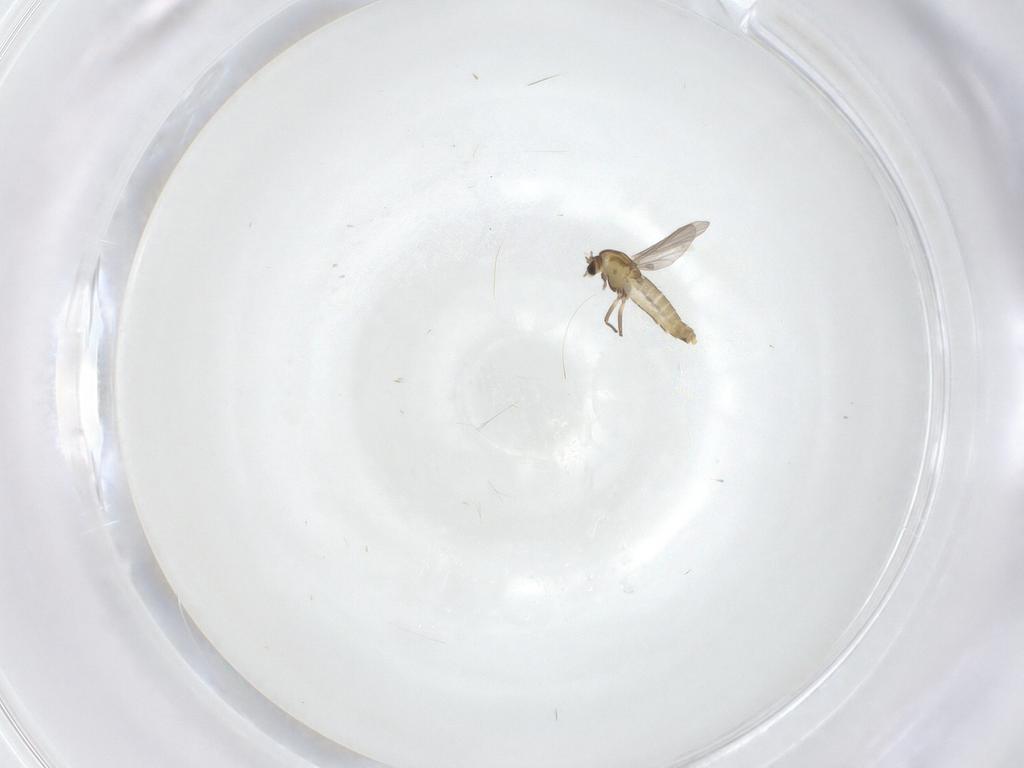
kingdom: Animalia
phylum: Arthropoda
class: Insecta
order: Diptera
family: Chironomidae
